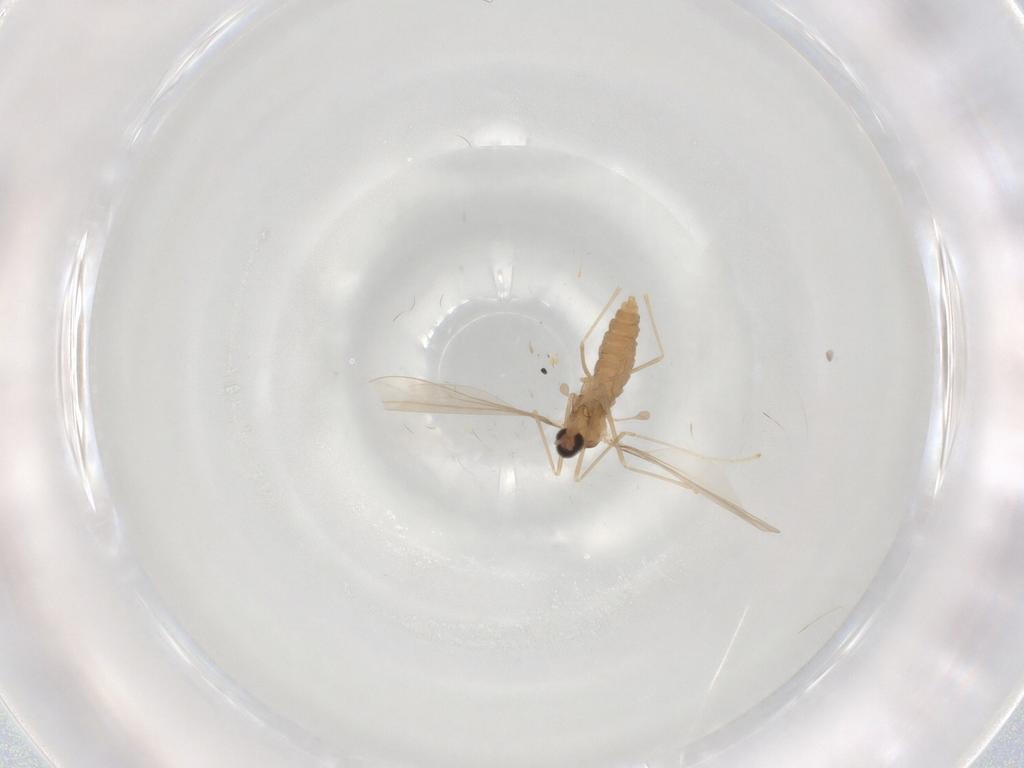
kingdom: Animalia
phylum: Arthropoda
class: Insecta
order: Diptera
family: Cecidomyiidae
